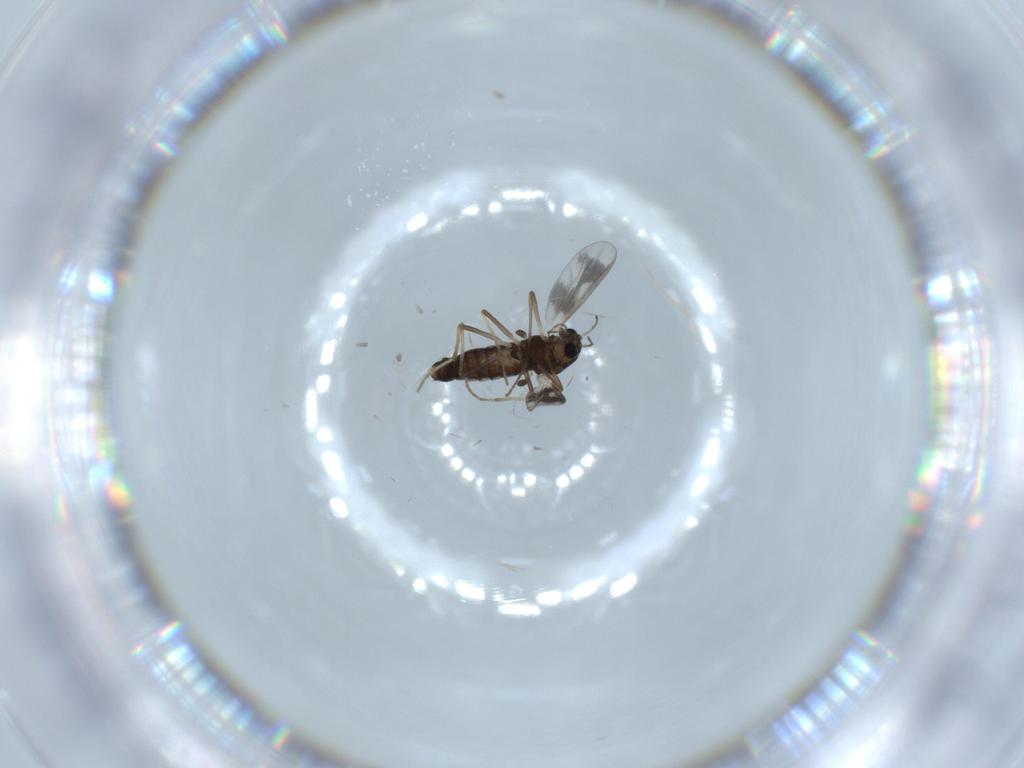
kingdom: Animalia
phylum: Arthropoda
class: Insecta
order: Diptera
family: Chironomidae
